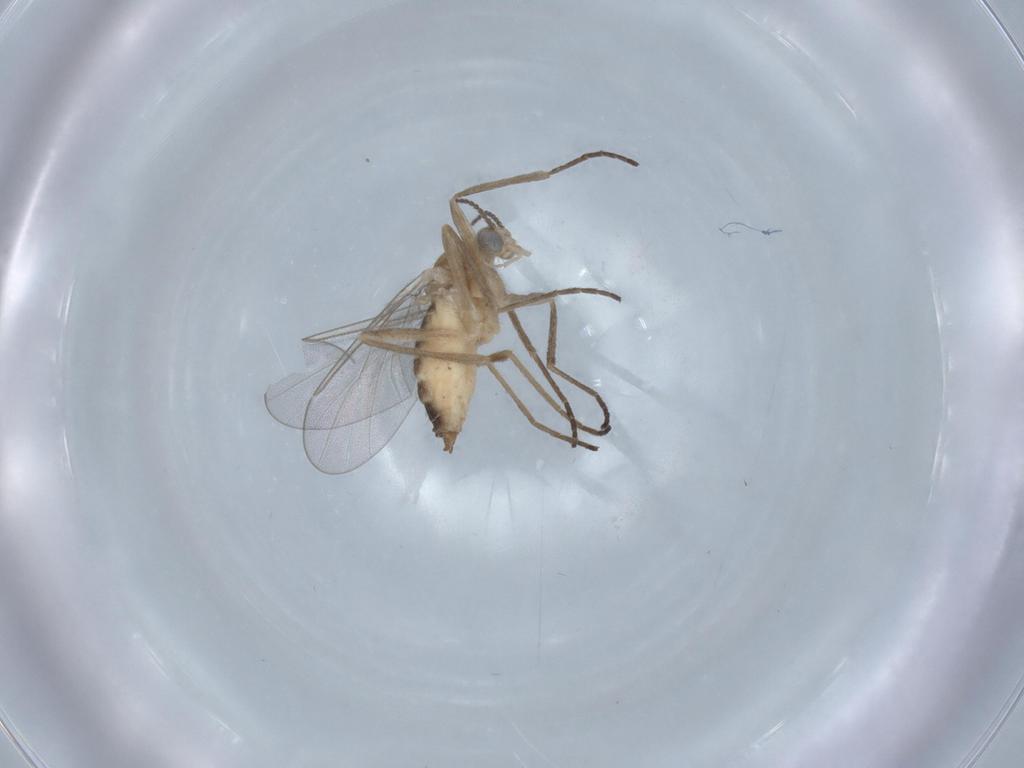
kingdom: Animalia
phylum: Arthropoda
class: Insecta
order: Diptera
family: Cecidomyiidae
